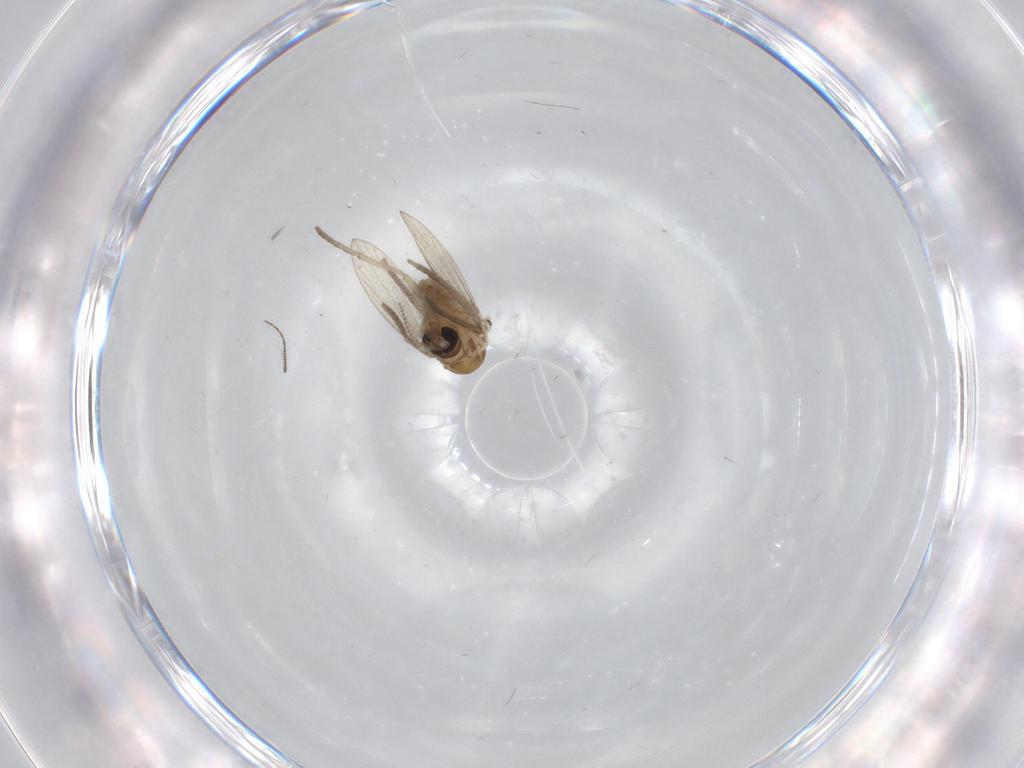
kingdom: Animalia
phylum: Arthropoda
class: Insecta
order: Diptera
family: Psychodidae
